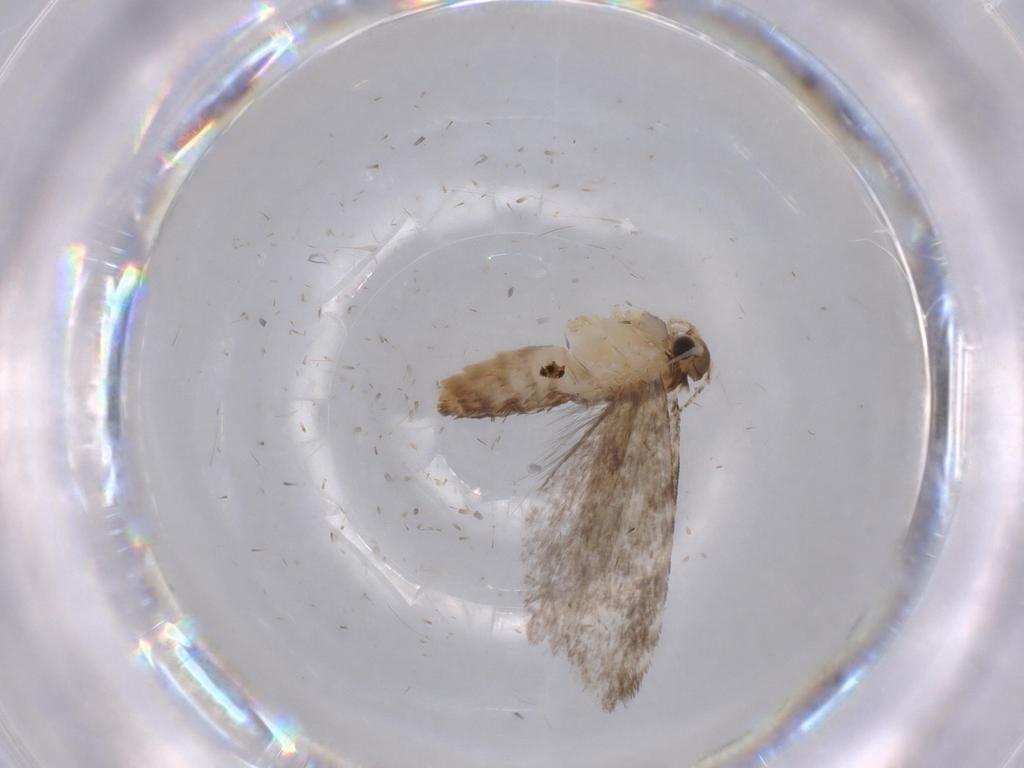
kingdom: Animalia
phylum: Arthropoda
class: Insecta
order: Lepidoptera
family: Tineidae
